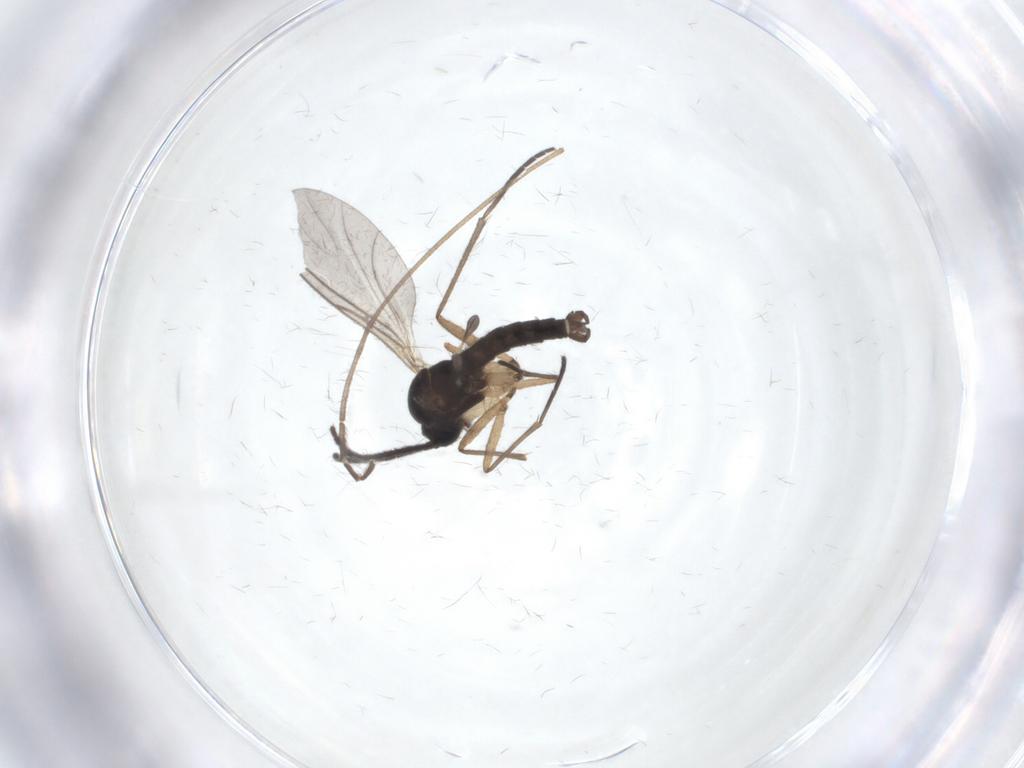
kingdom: Animalia
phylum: Arthropoda
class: Insecta
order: Diptera
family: Sciaridae
